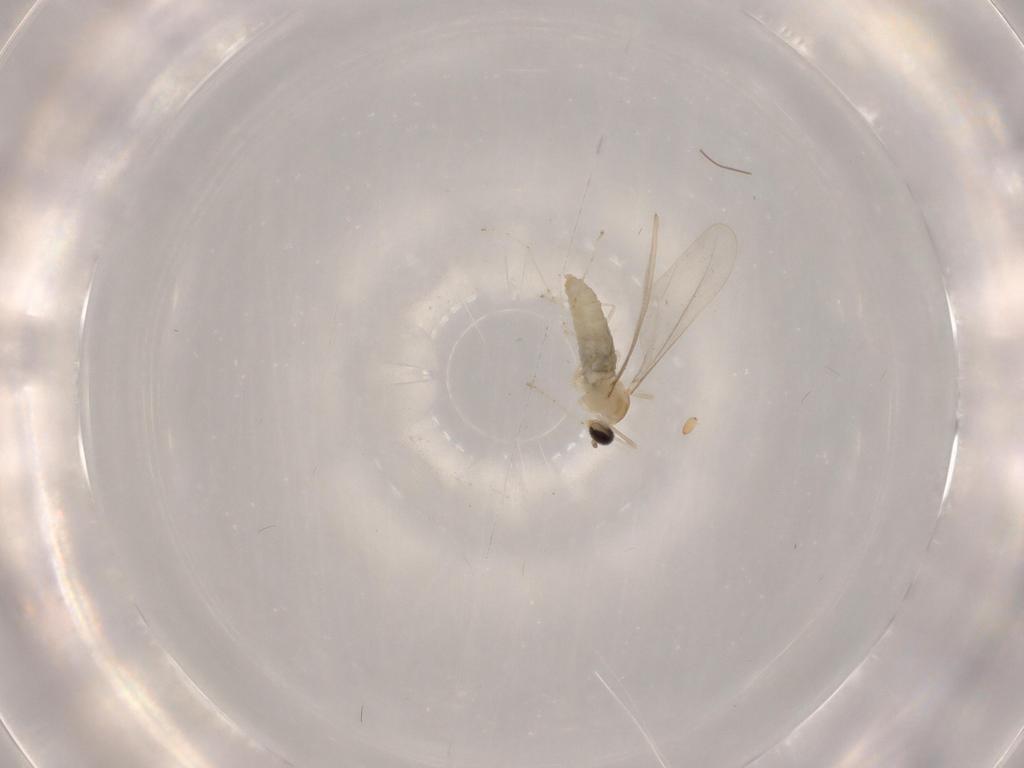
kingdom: Animalia
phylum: Arthropoda
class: Insecta
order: Diptera
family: Cecidomyiidae
